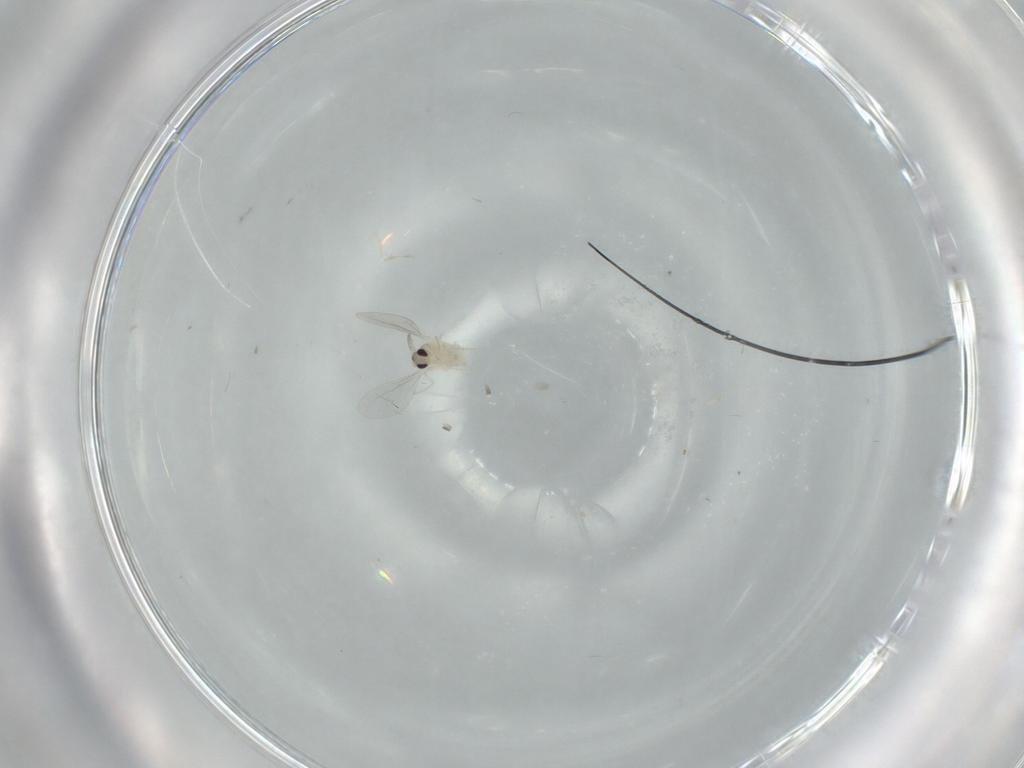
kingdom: Animalia
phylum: Arthropoda
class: Insecta
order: Diptera
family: Cecidomyiidae
